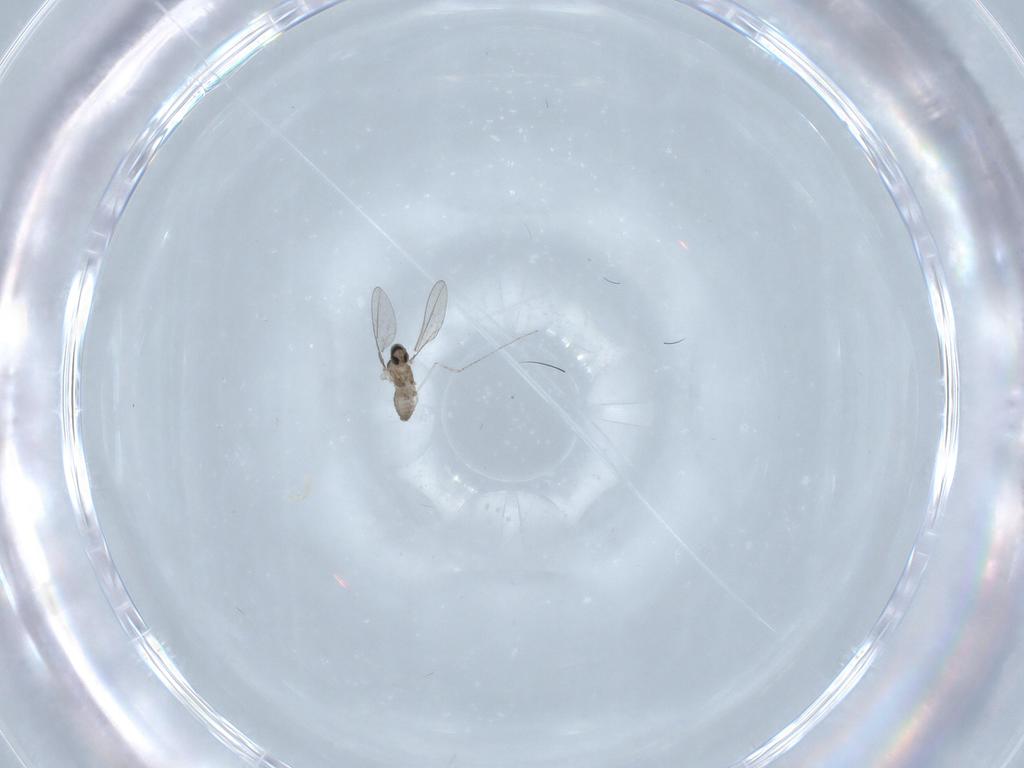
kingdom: Animalia
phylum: Arthropoda
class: Insecta
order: Diptera
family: Cecidomyiidae
